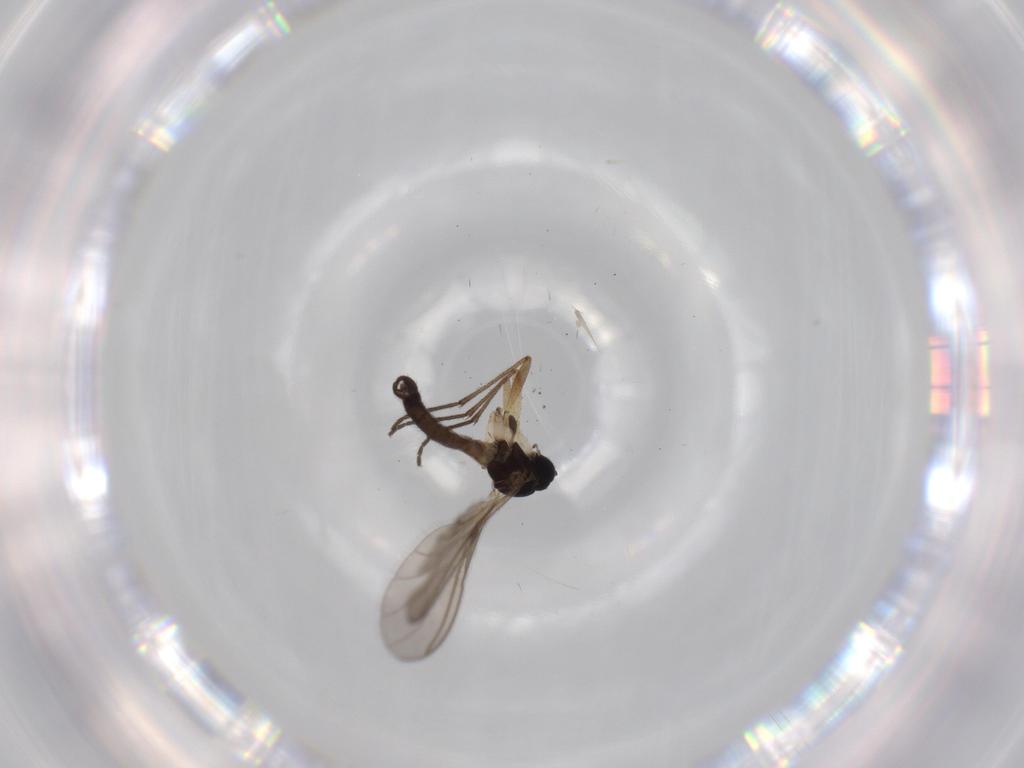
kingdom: Animalia
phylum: Arthropoda
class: Insecta
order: Diptera
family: Sciaridae
